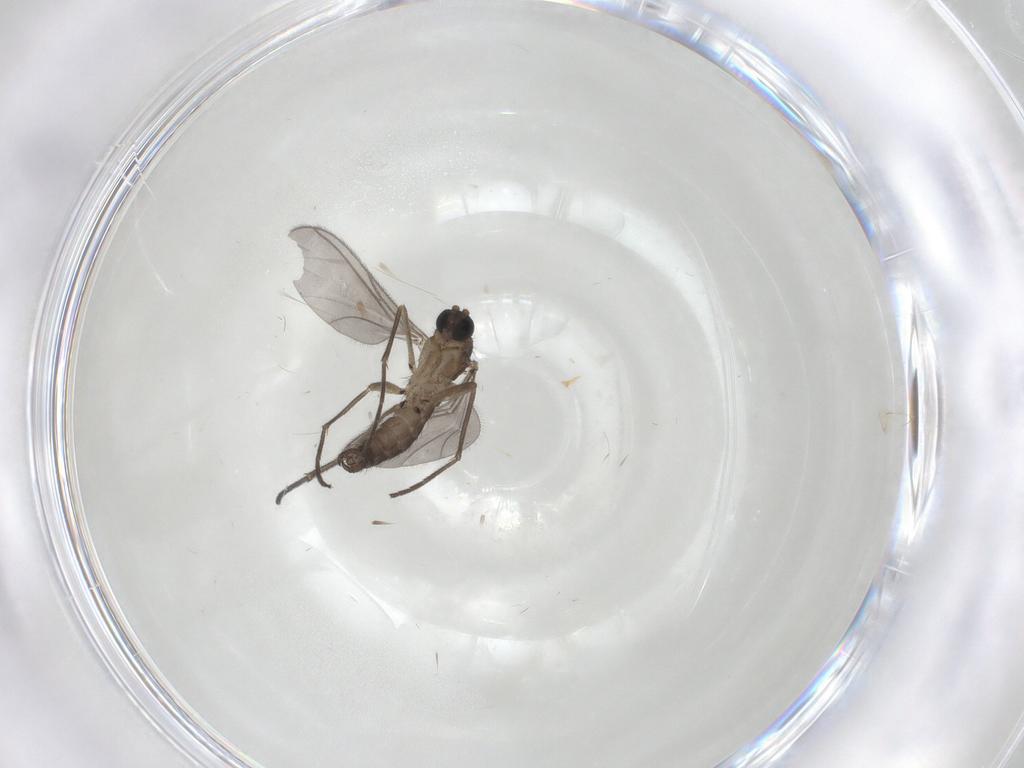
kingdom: Animalia
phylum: Arthropoda
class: Insecta
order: Diptera
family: Sciaridae
